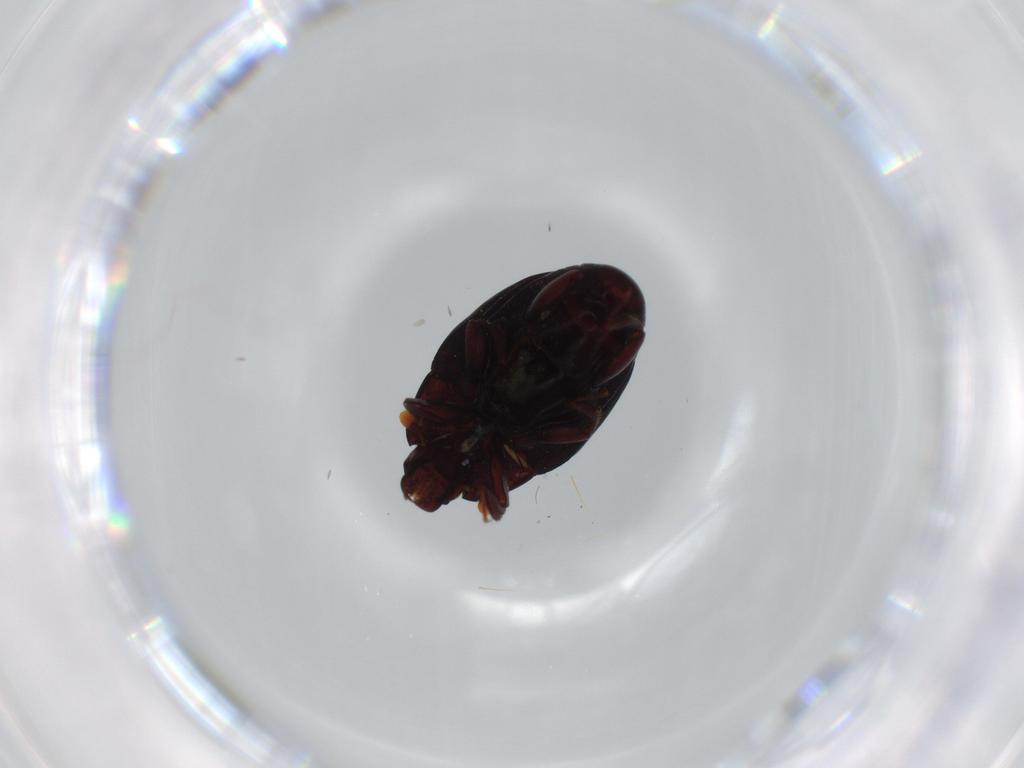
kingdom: Animalia
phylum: Arthropoda
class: Insecta
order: Coleoptera
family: Histeridae
